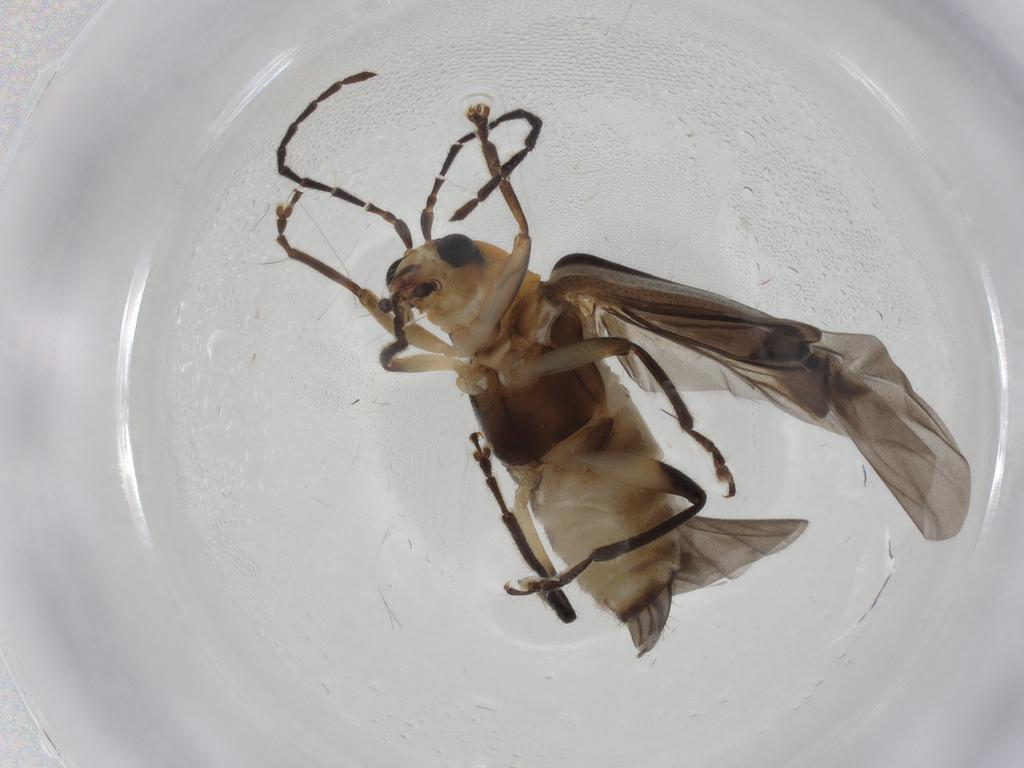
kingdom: Animalia
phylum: Arthropoda
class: Insecta
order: Coleoptera
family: Chrysomelidae
